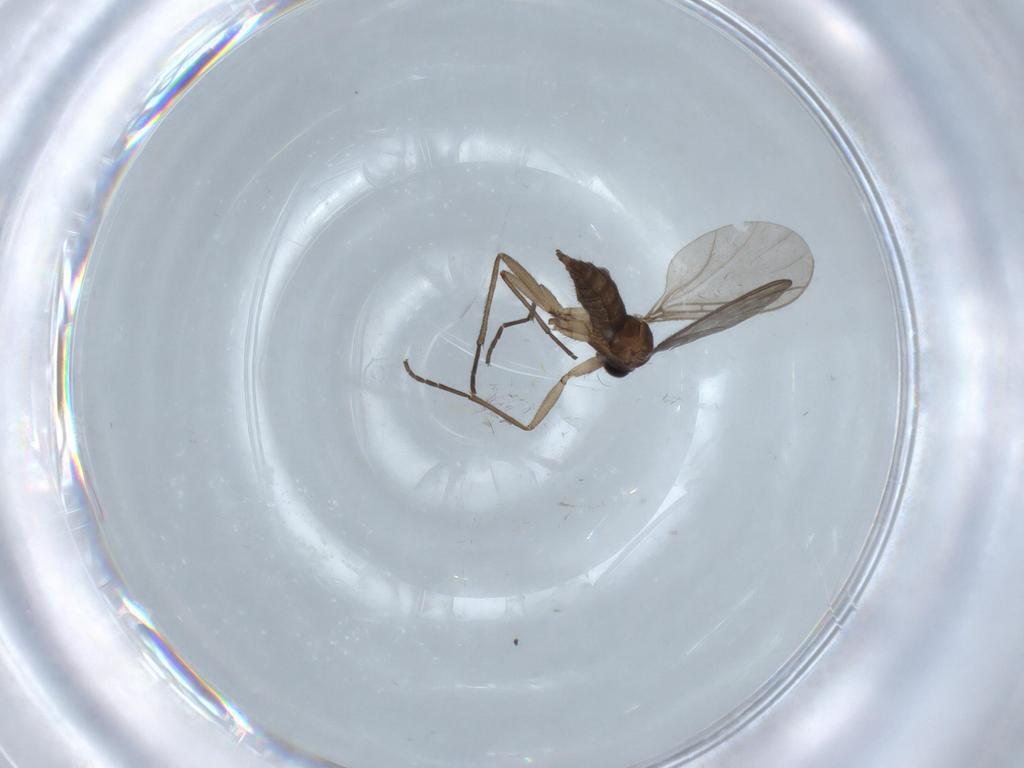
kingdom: Animalia
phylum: Arthropoda
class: Insecta
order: Diptera
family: Sciaridae
